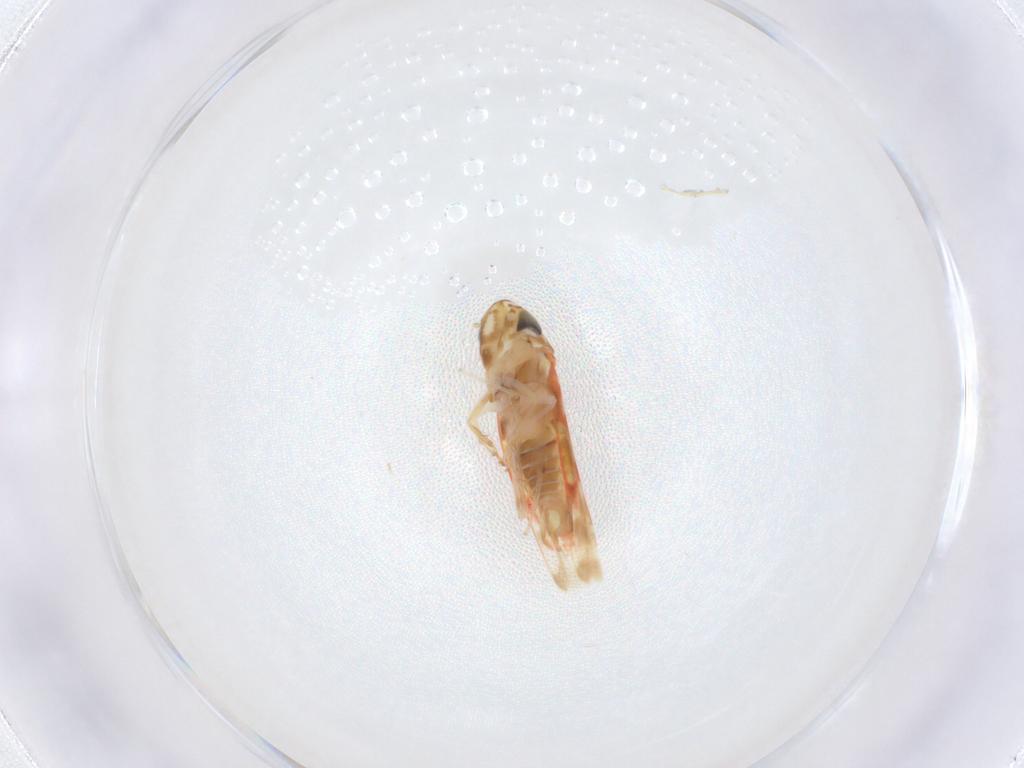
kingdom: Animalia
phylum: Arthropoda
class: Insecta
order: Hemiptera
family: Cicadellidae
